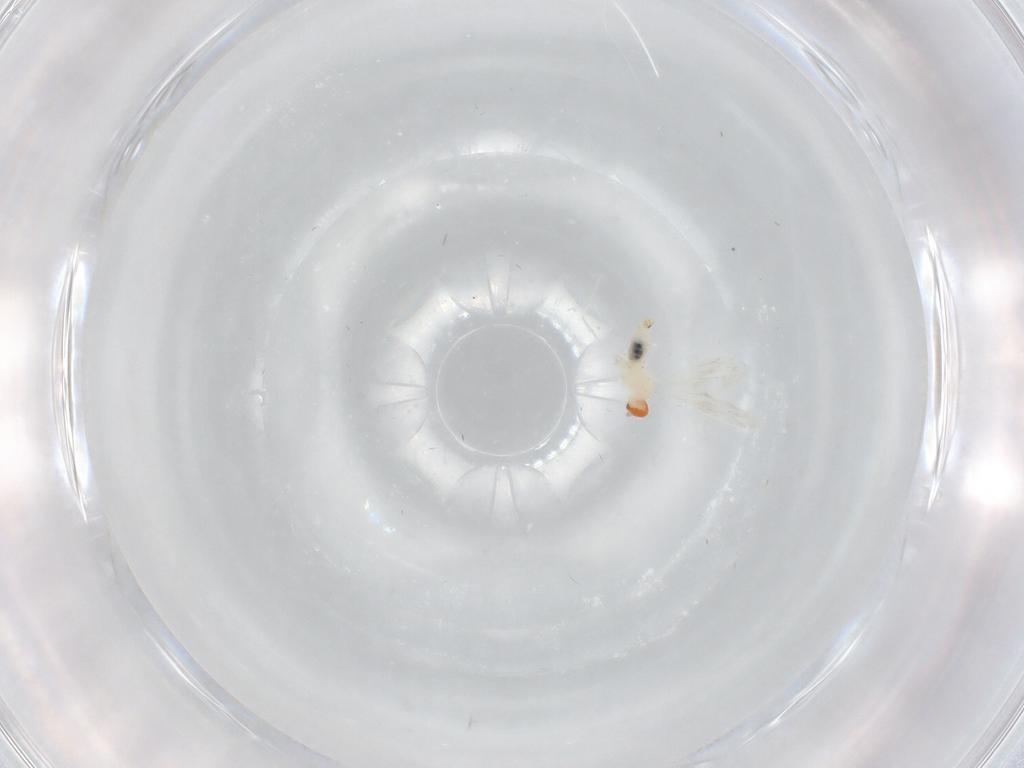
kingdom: Animalia
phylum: Arthropoda
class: Insecta
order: Diptera
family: Cecidomyiidae
